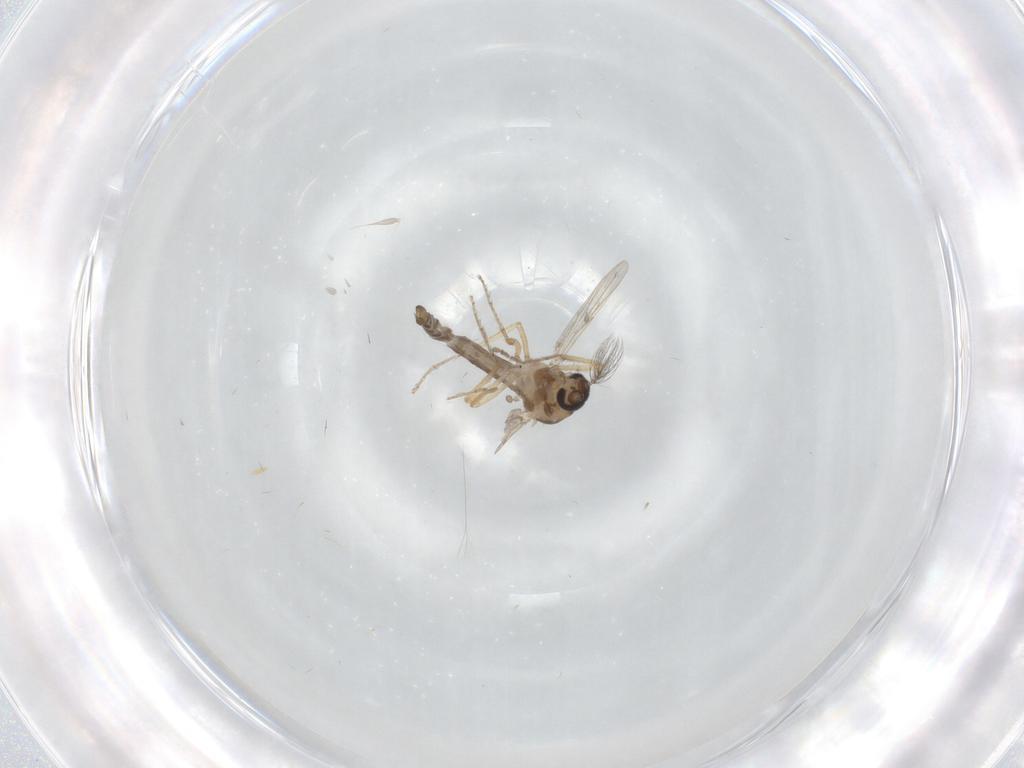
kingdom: Animalia
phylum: Arthropoda
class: Insecta
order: Diptera
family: Ceratopogonidae
